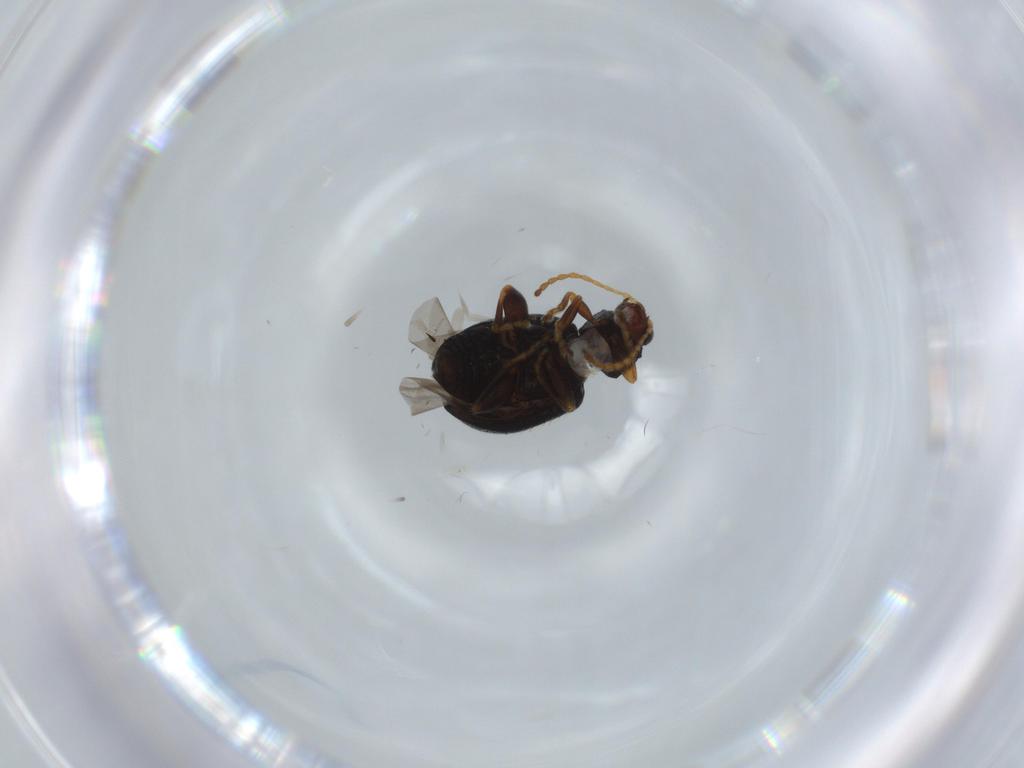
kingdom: Animalia
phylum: Arthropoda
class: Insecta
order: Coleoptera
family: Chrysomelidae
